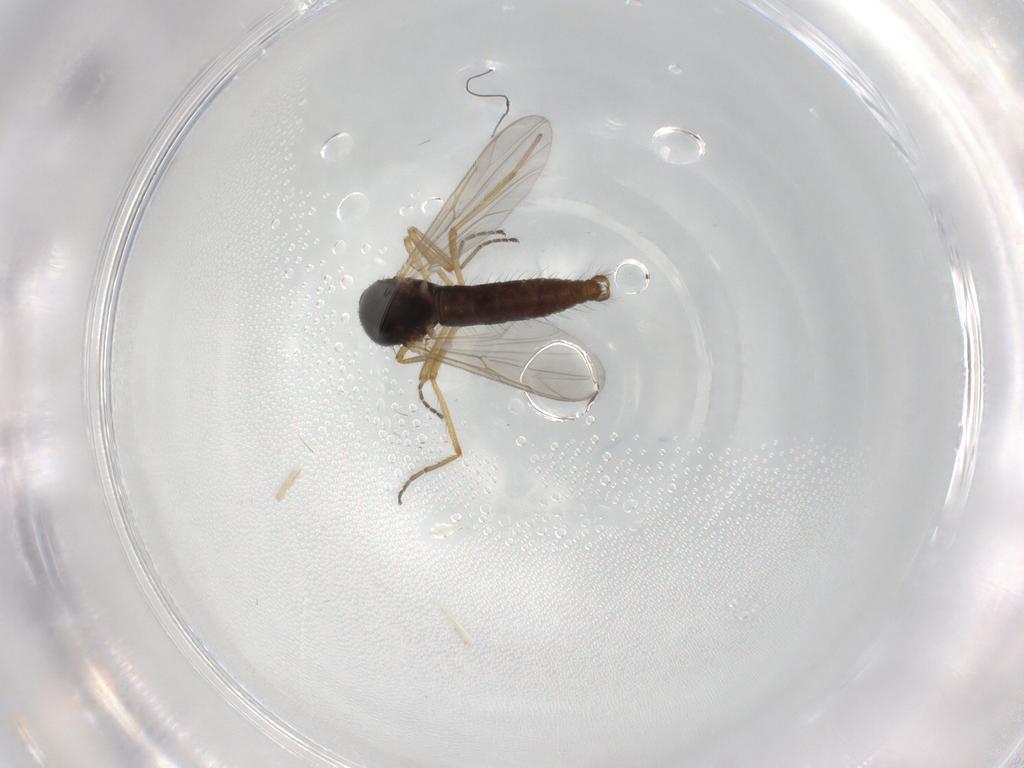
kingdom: Animalia
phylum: Arthropoda
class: Insecta
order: Diptera
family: Ceratopogonidae
